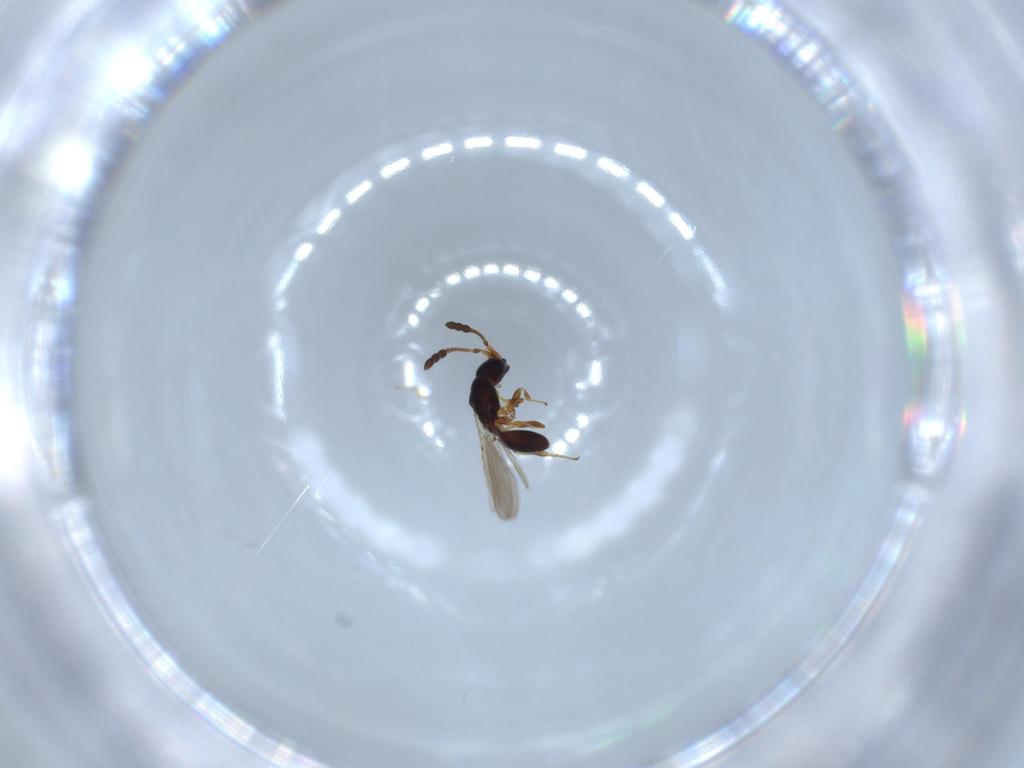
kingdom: Animalia
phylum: Arthropoda
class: Insecta
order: Hymenoptera
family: Diapriidae
